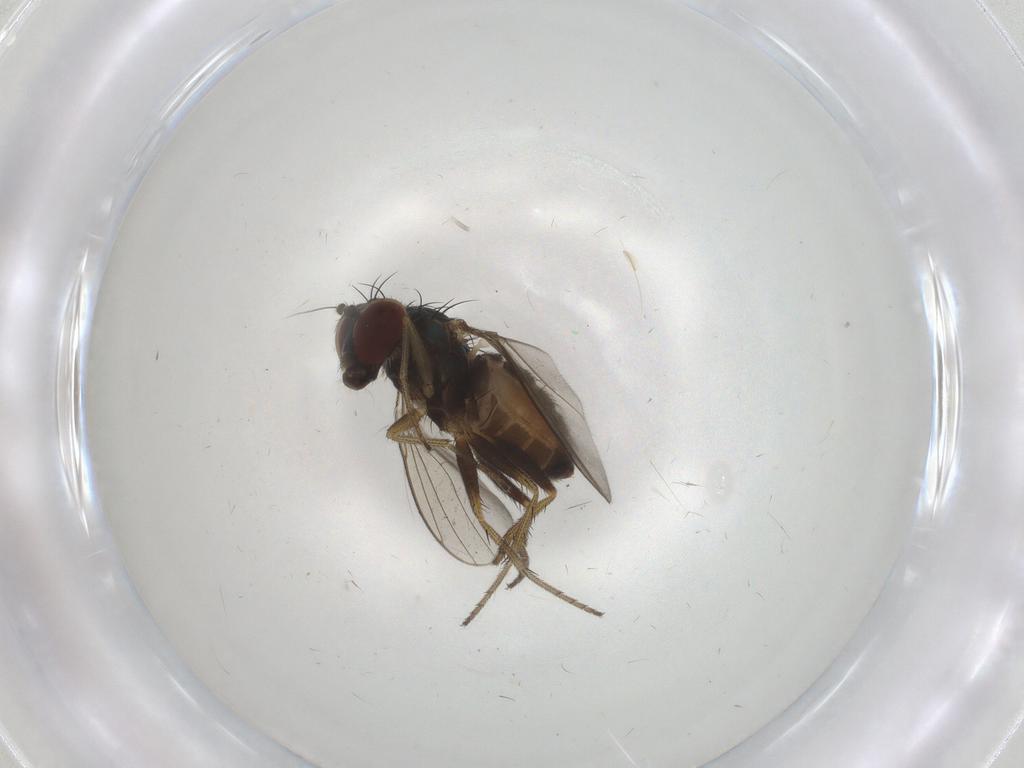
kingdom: Animalia
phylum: Arthropoda
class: Insecta
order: Diptera
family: Dolichopodidae
